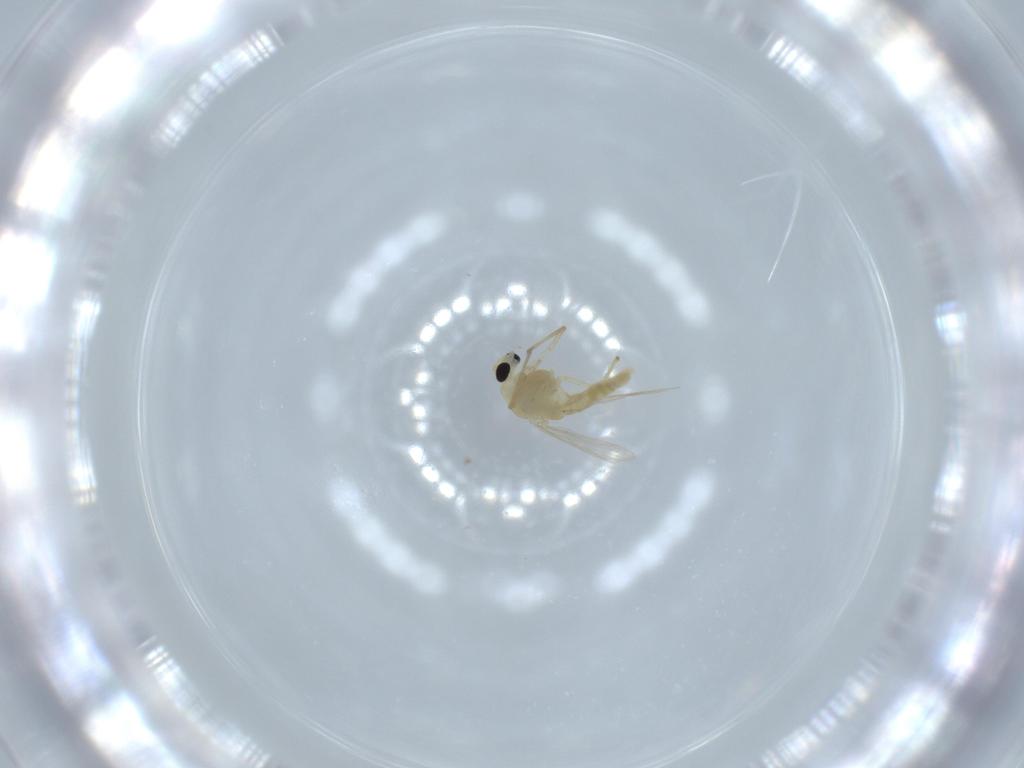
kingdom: Animalia
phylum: Arthropoda
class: Insecta
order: Diptera
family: Chironomidae
